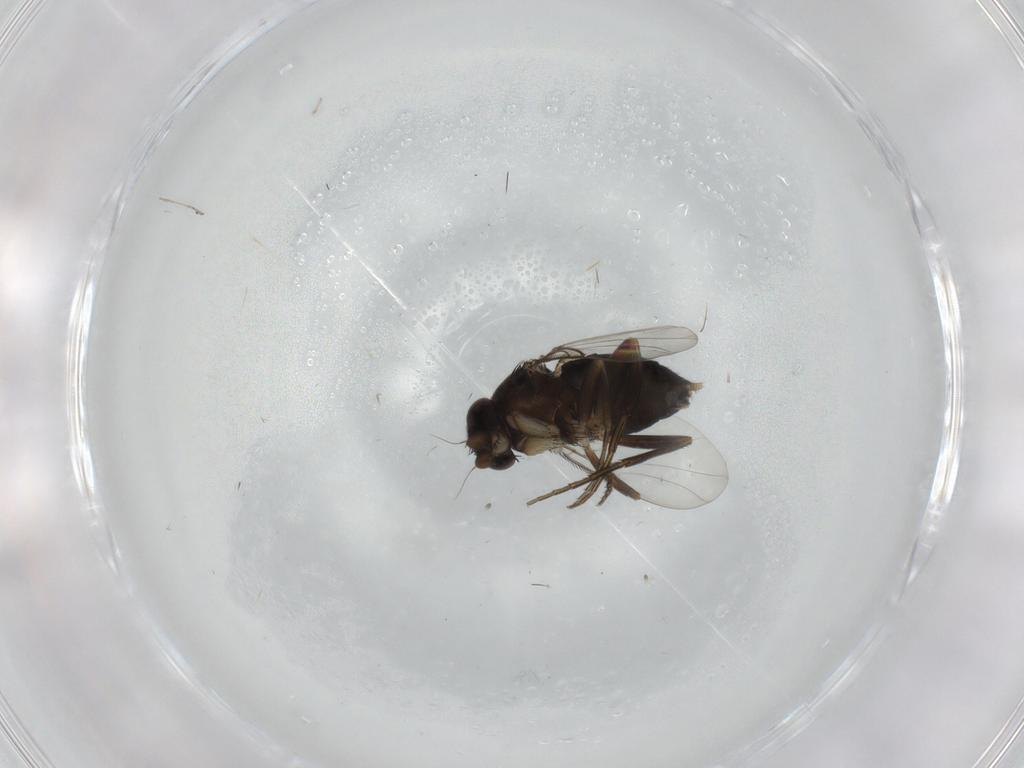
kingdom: Animalia
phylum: Arthropoda
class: Insecta
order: Diptera
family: Phoridae
